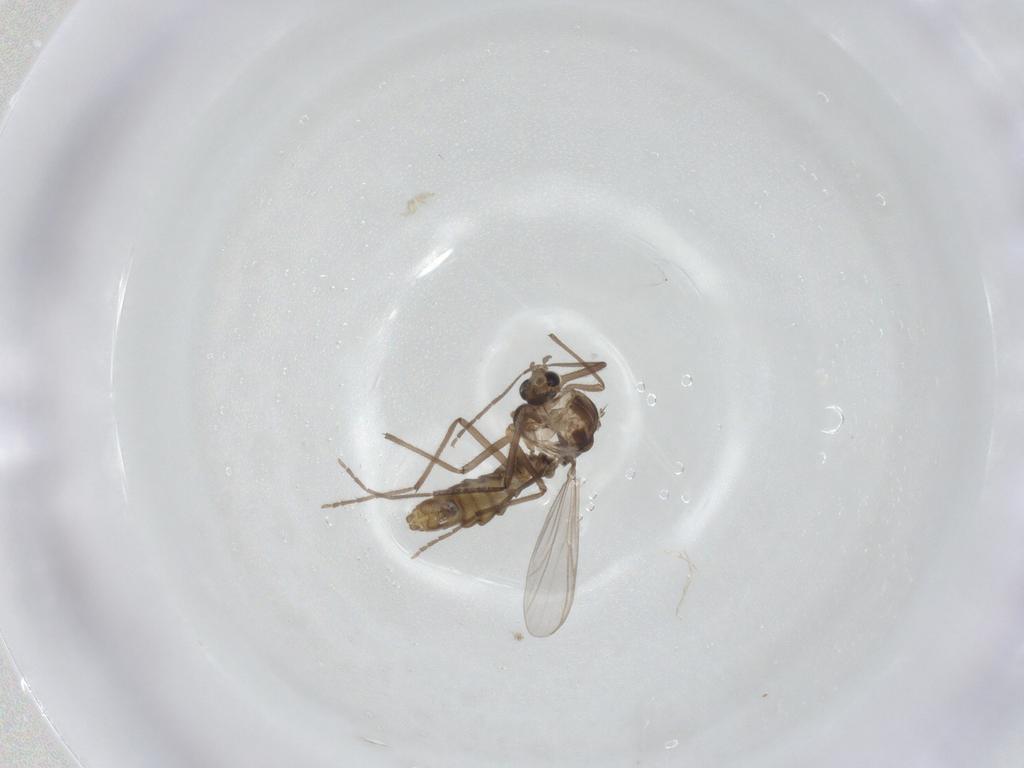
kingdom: Animalia
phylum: Arthropoda
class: Insecta
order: Diptera
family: Chironomidae
